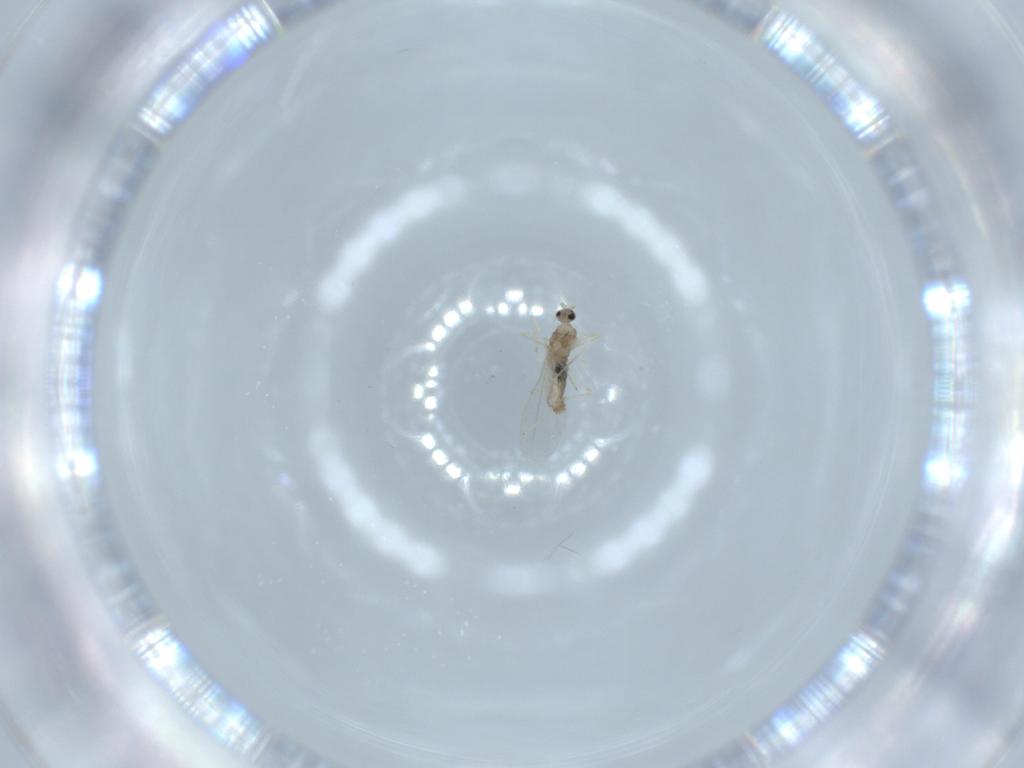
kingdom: Animalia
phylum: Arthropoda
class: Insecta
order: Diptera
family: Cecidomyiidae
